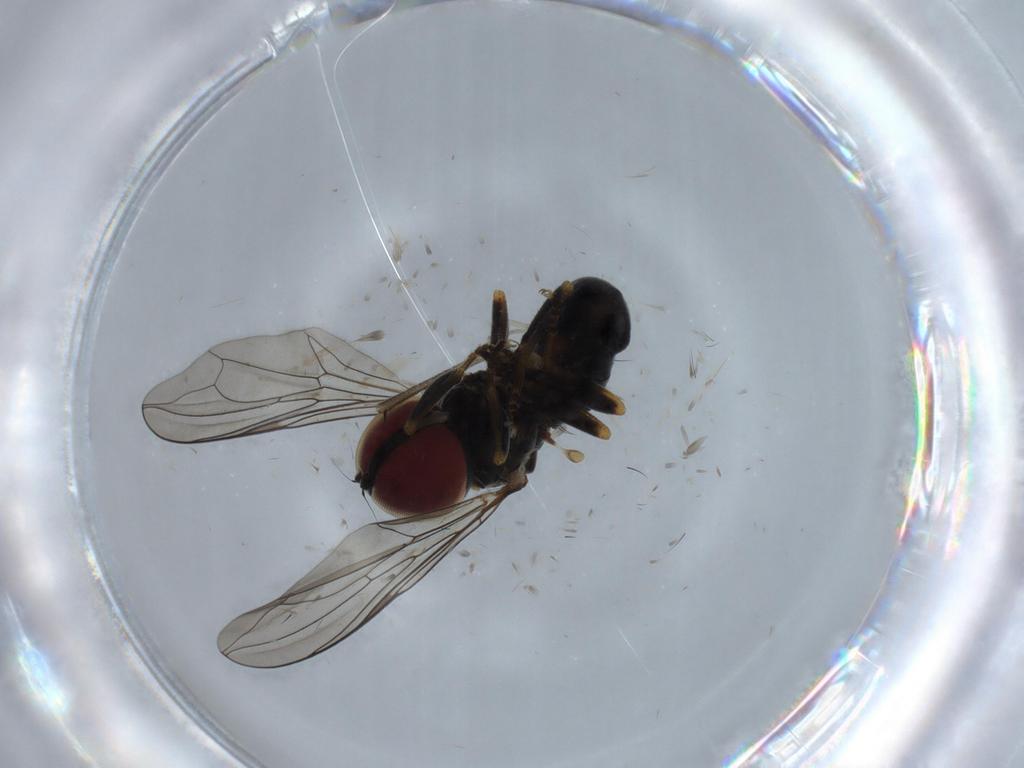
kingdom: Animalia
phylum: Arthropoda
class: Insecta
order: Diptera
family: Pipunculidae
